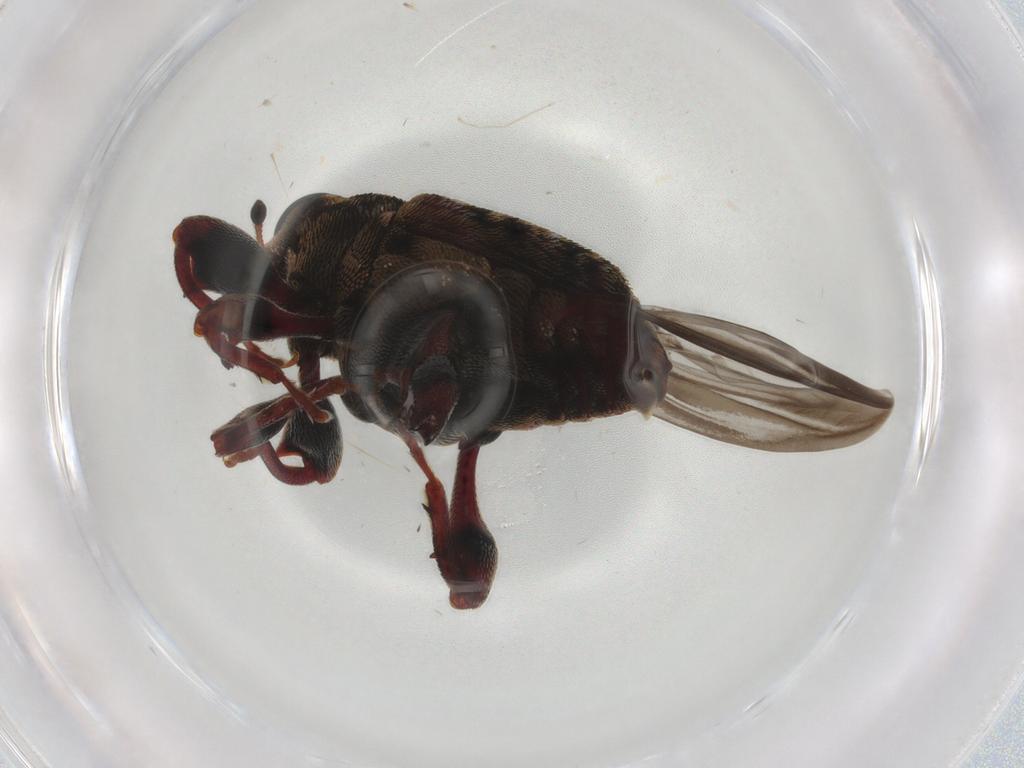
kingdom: Animalia
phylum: Arthropoda
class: Insecta
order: Coleoptera
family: Curculionidae
